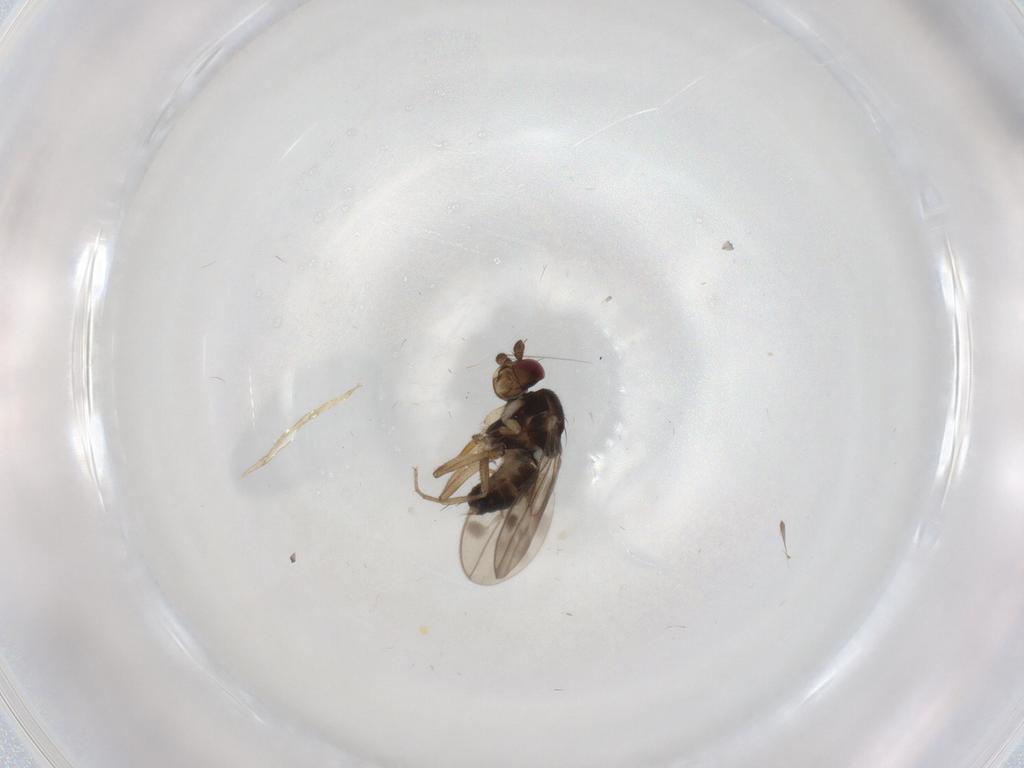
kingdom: Animalia
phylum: Arthropoda
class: Insecta
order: Diptera
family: Sphaeroceridae
